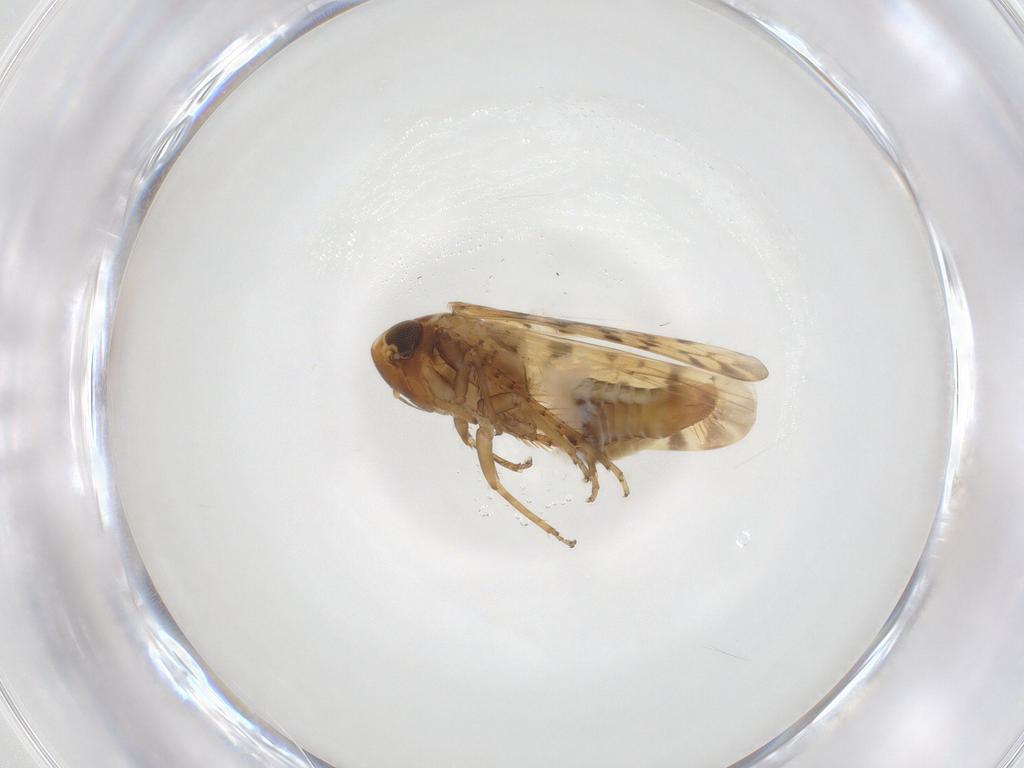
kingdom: Animalia
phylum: Arthropoda
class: Insecta
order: Hemiptera
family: Cicadellidae
